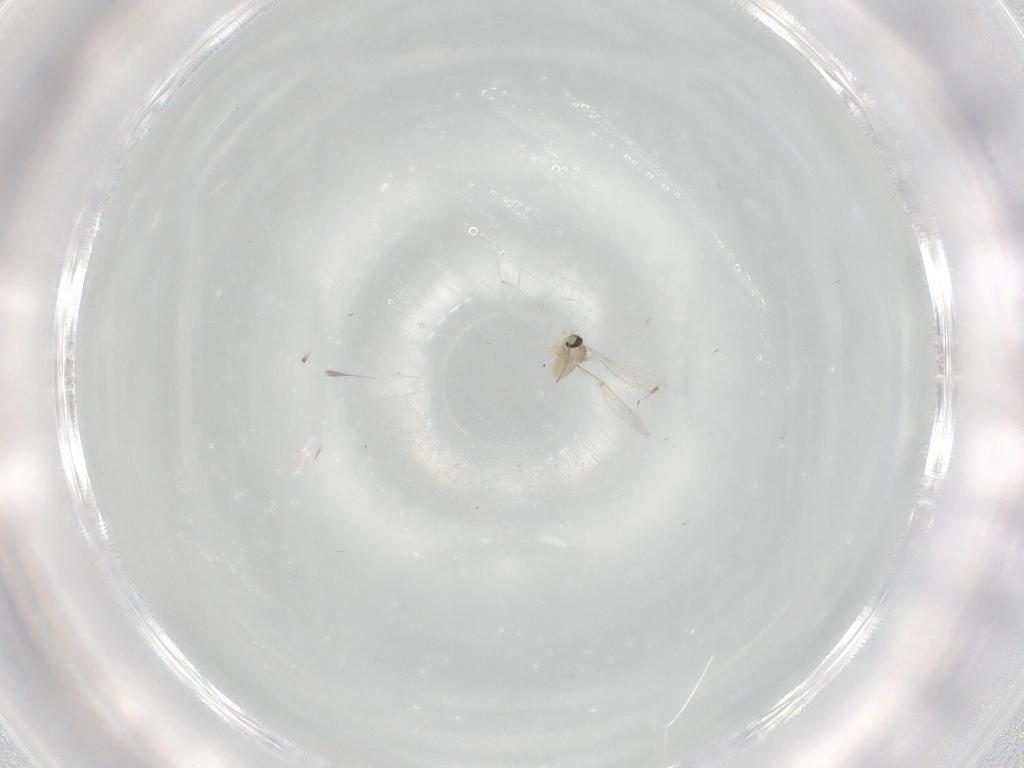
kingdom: Animalia
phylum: Arthropoda
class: Insecta
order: Diptera
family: Cecidomyiidae
